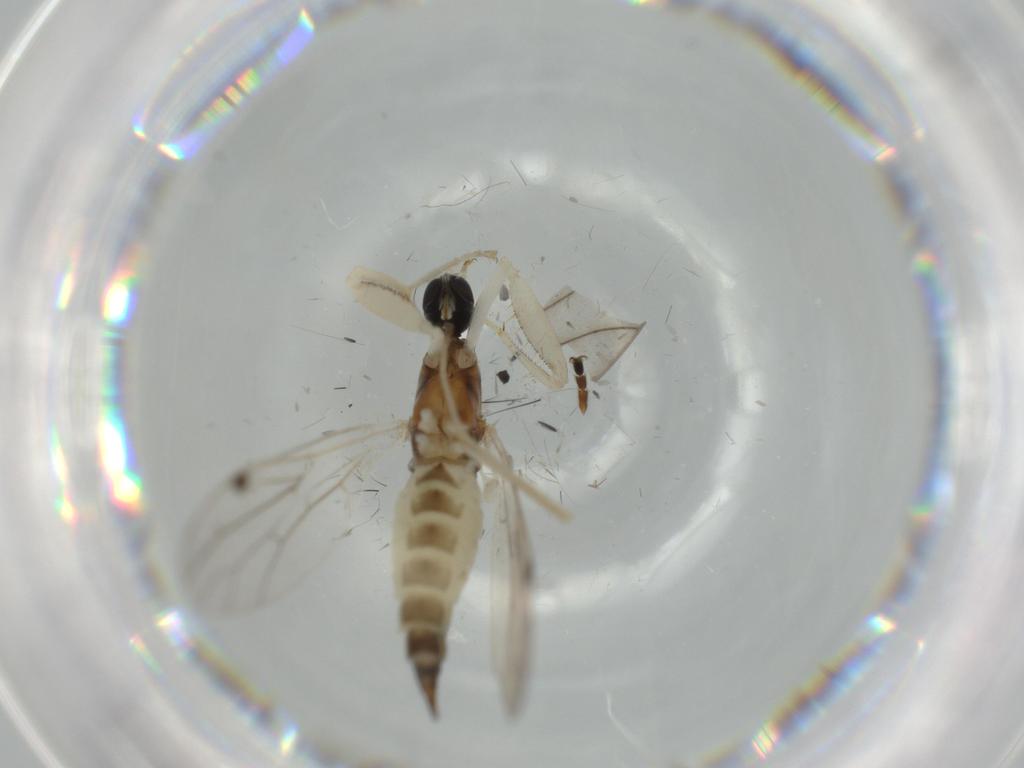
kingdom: Animalia
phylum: Arthropoda
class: Insecta
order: Diptera
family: Empididae
